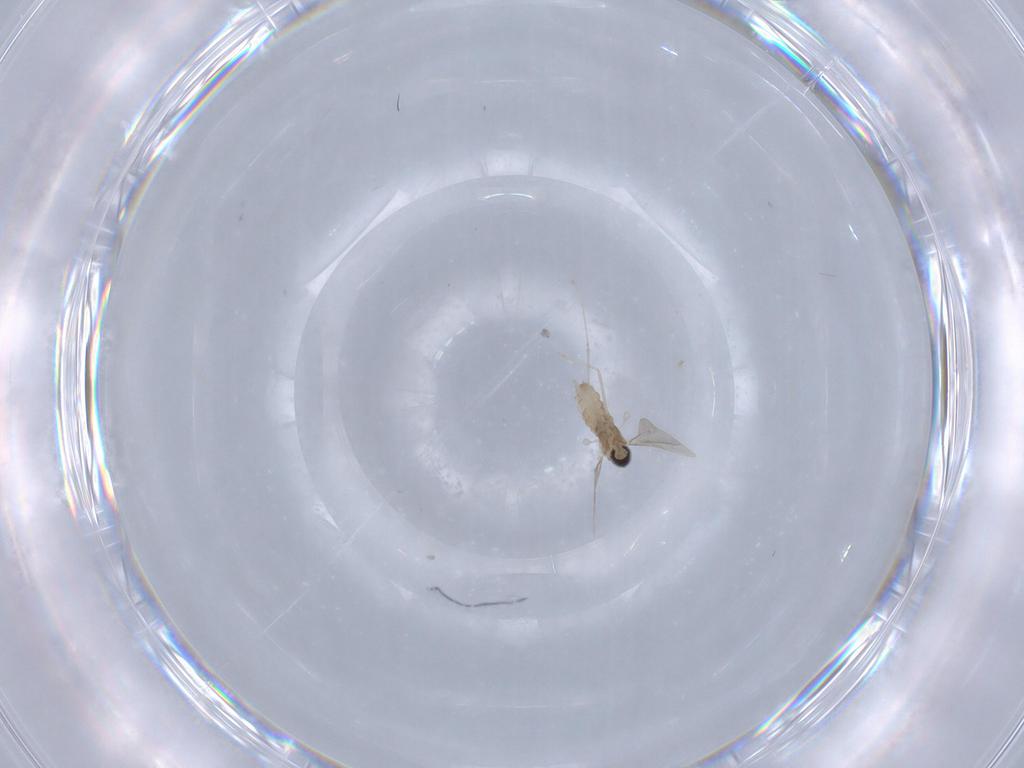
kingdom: Animalia
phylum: Arthropoda
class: Insecta
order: Diptera
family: Cecidomyiidae
